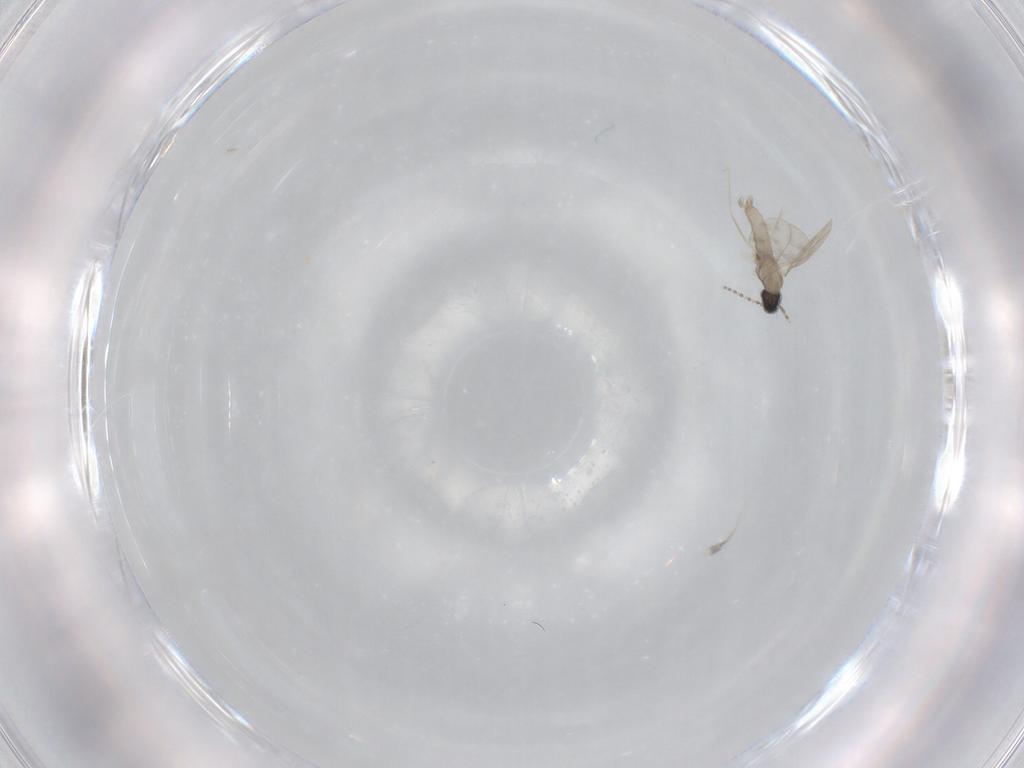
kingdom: Animalia
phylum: Arthropoda
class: Insecta
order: Diptera
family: Cecidomyiidae
